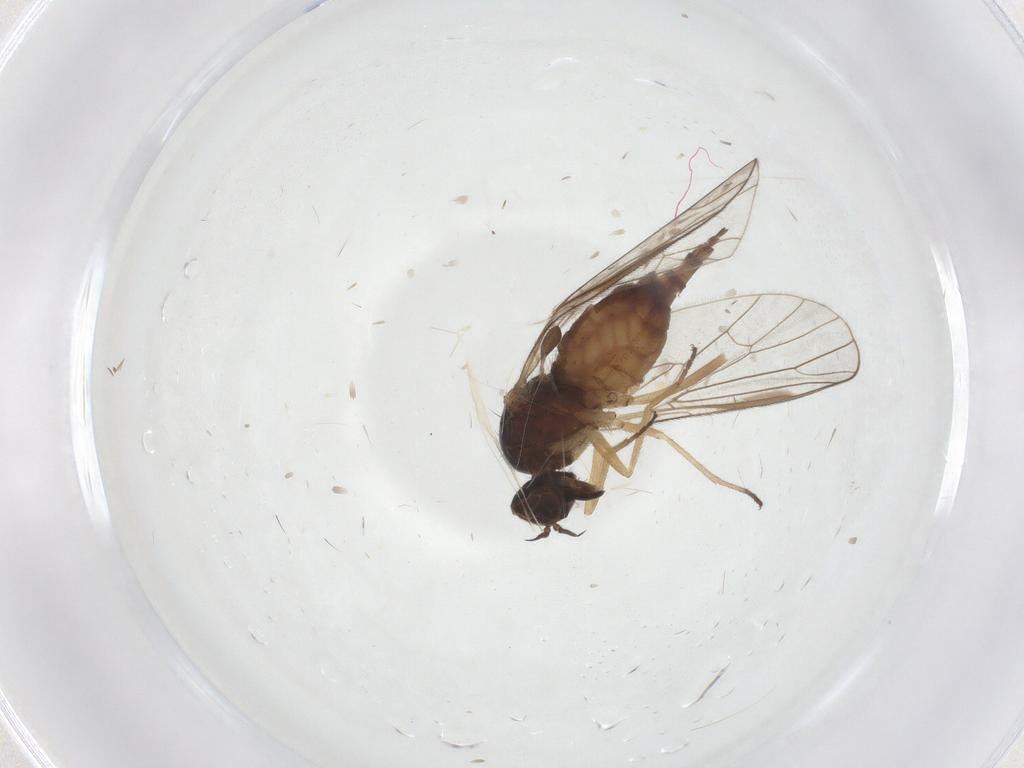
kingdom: Animalia
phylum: Arthropoda
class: Insecta
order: Diptera
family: Empididae
